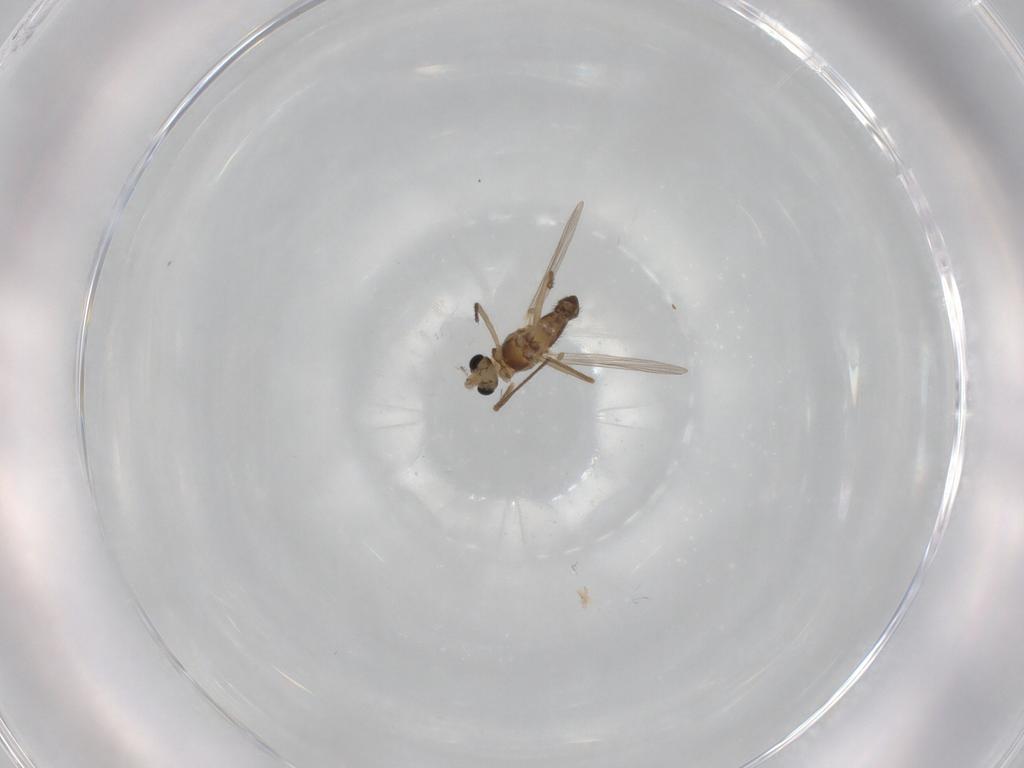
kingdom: Animalia
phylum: Arthropoda
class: Insecta
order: Diptera
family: Chironomidae
